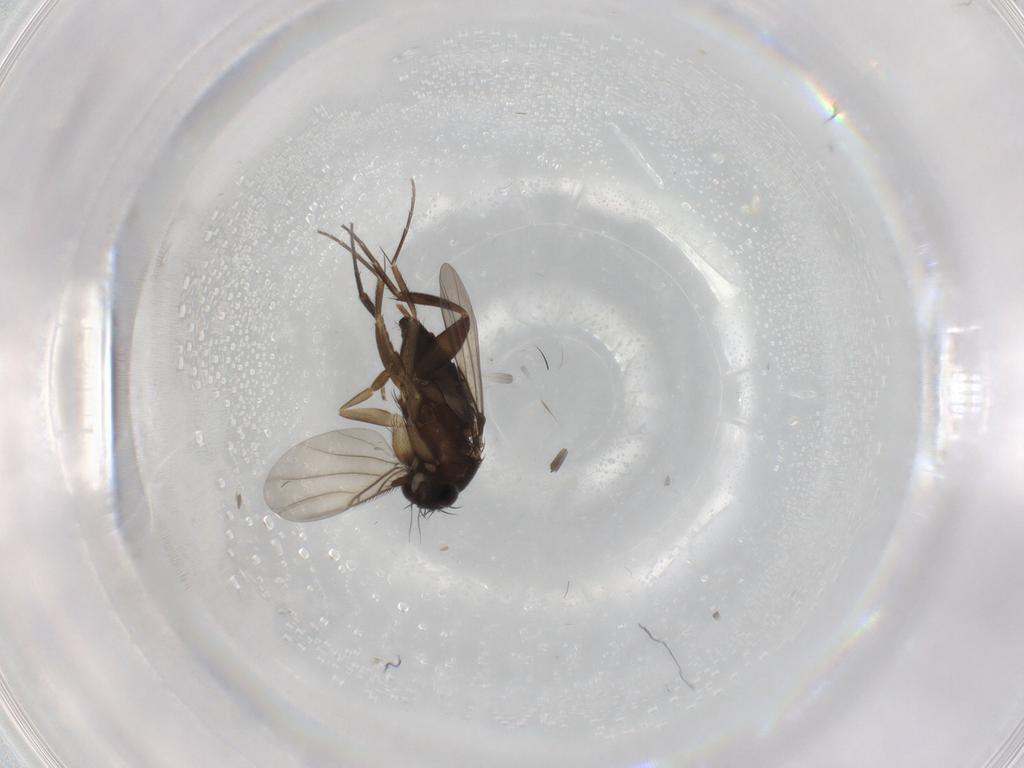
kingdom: Animalia
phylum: Arthropoda
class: Insecta
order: Diptera
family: Phoridae
